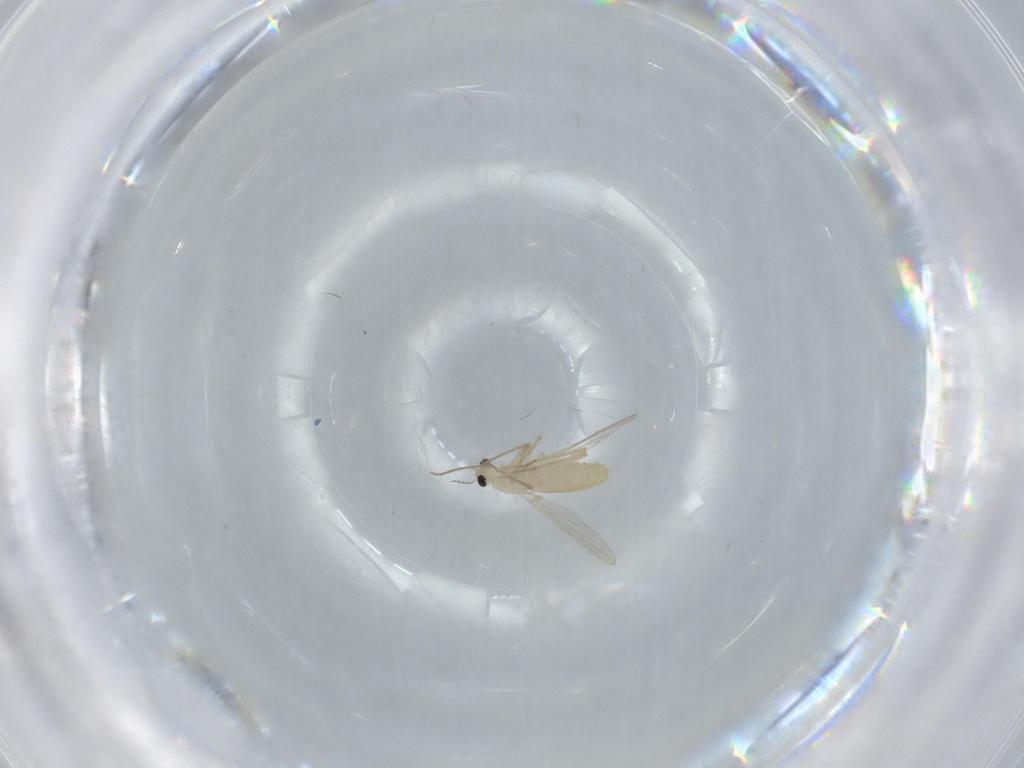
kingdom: Animalia
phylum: Arthropoda
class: Insecta
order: Diptera
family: Chironomidae
